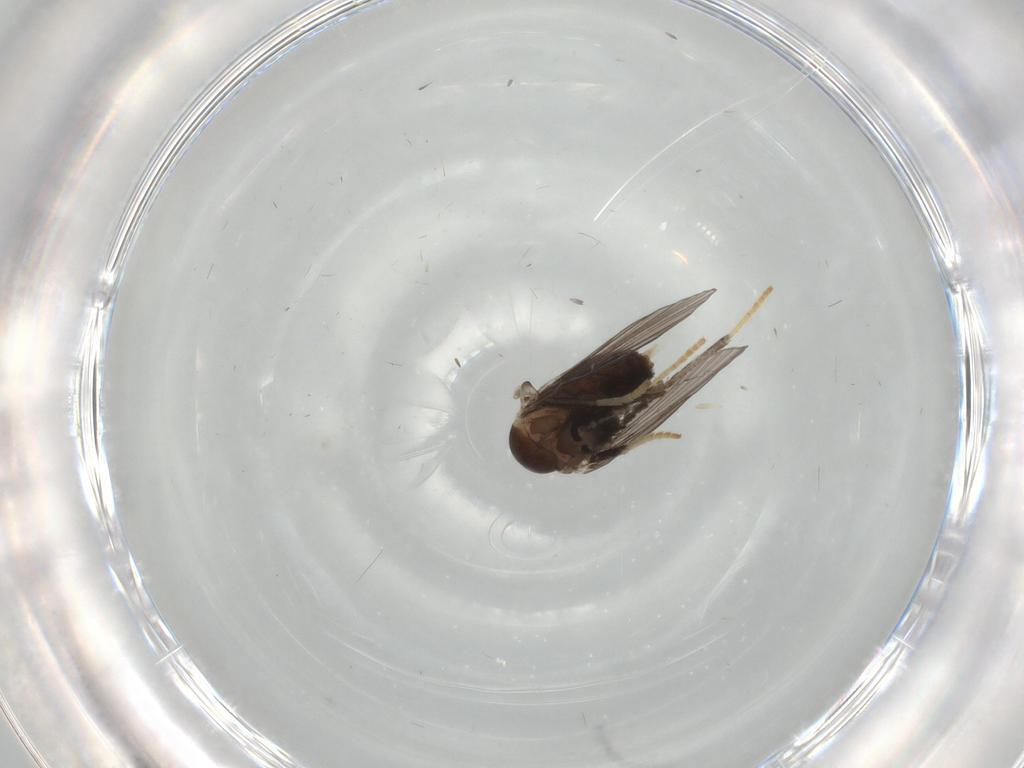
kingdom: Animalia
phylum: Arthropoda
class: Insecta
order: Diptera
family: Psychodidae
